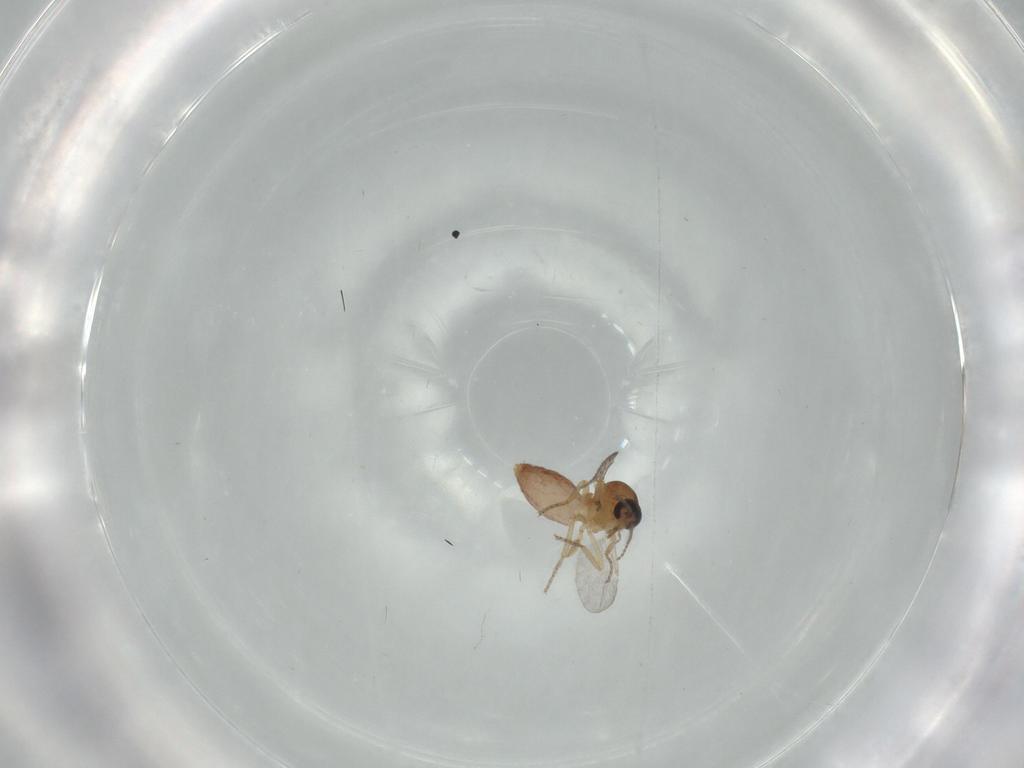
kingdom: Animalia
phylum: Arthropoda
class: Insecta
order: Diptera
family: Ceratopogonidae
